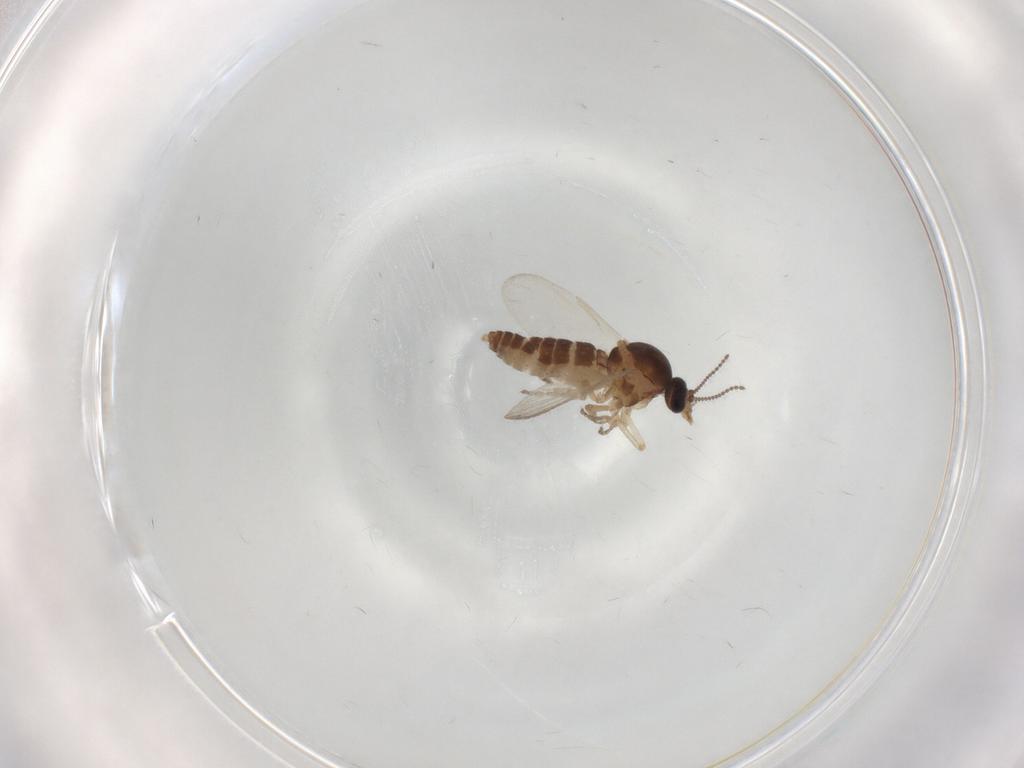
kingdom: Animalia
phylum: Arthropoda
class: Insecta
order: Diptera
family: Ceratopogonidae
